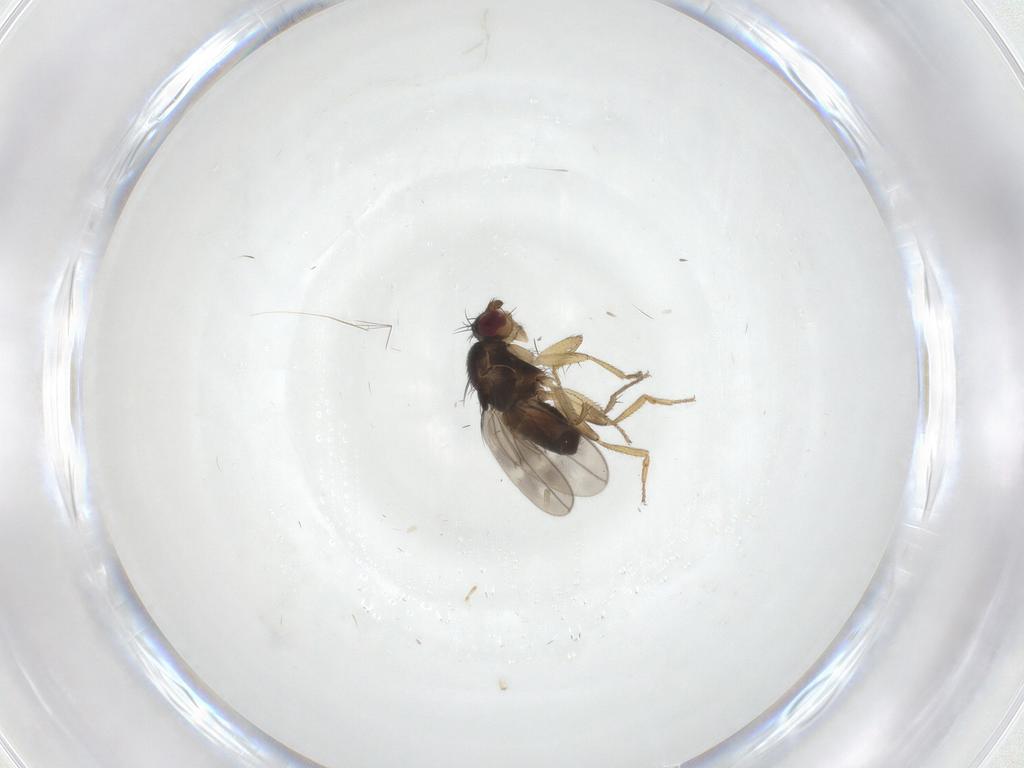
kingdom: Animalia
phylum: Arthropoda
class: Insecta
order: Diptera
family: Sphaeroceridae
